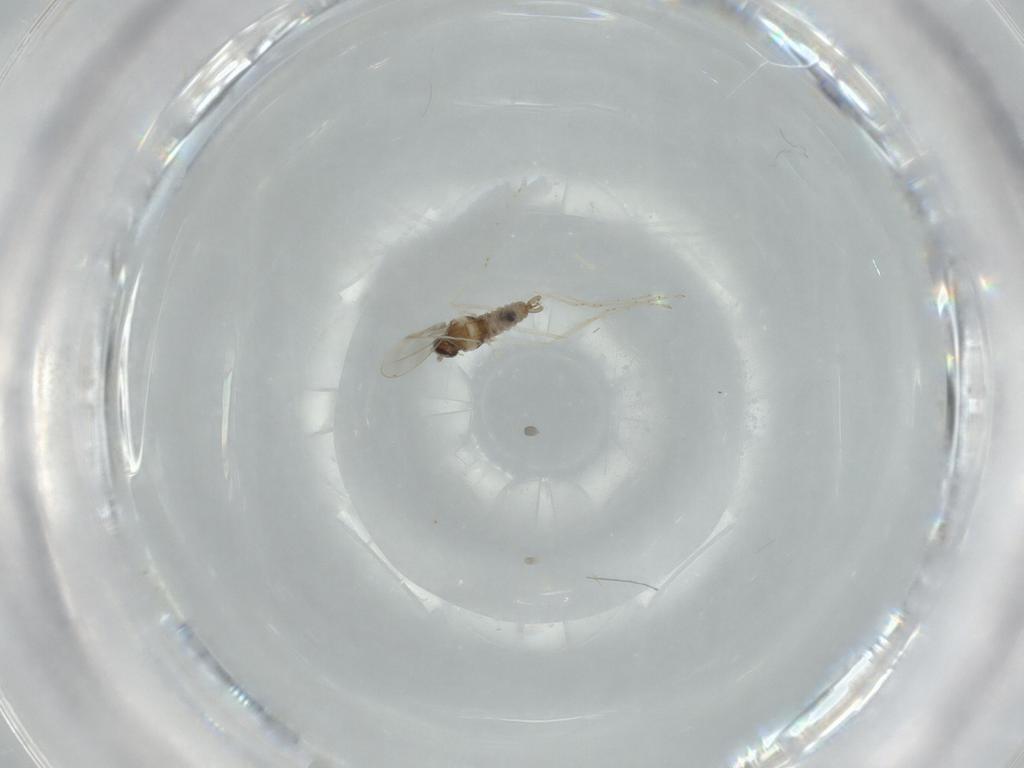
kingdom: Animalia
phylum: Arthropoda
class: Insecta
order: Diptera
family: Cecidomyiidae
